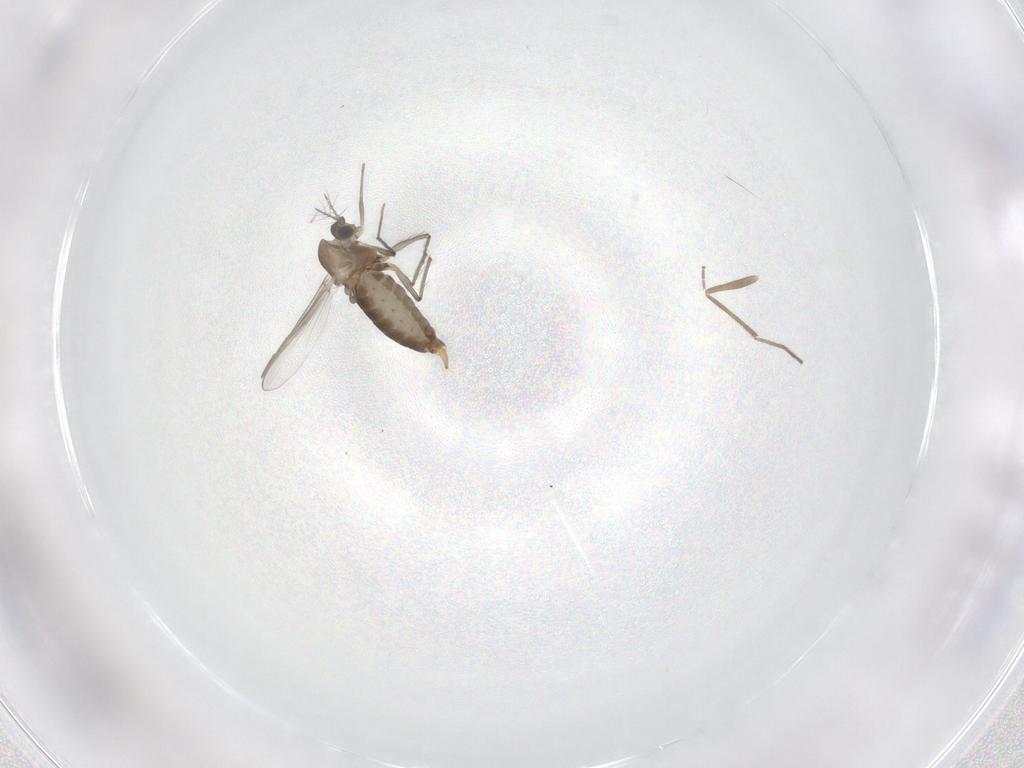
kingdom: Animalia
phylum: Arthropoda
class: Insecta
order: Diptera
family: Chironomidae
